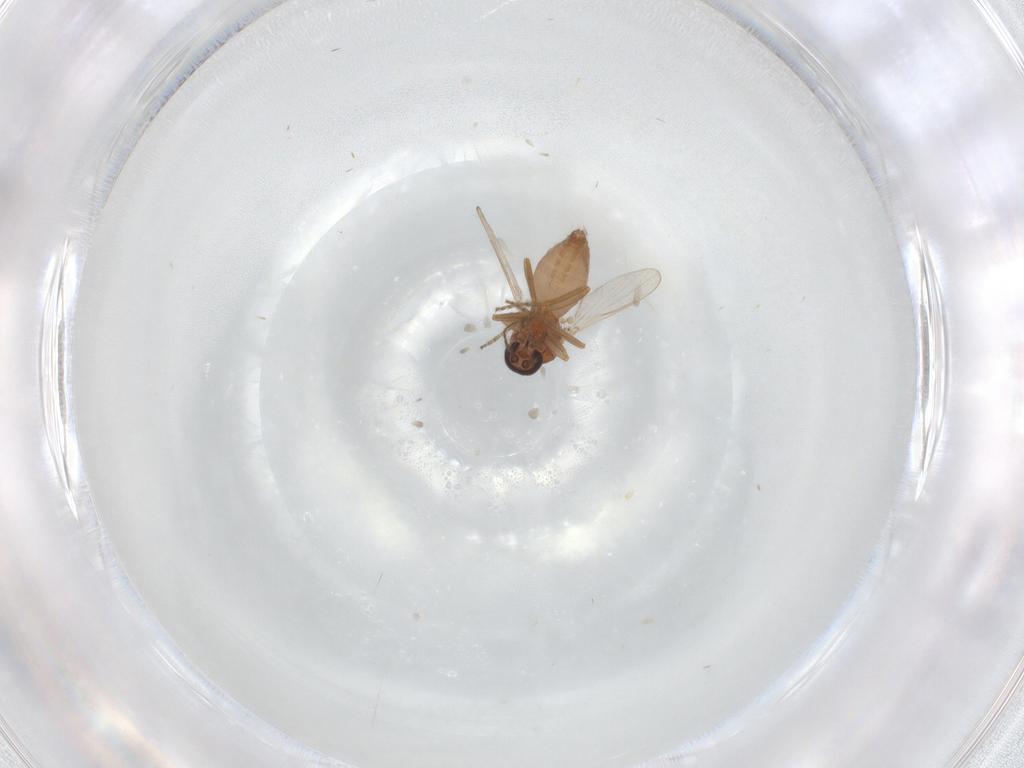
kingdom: Animalia
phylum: Arthropoda
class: Insecta
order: Diptera
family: Ceratopogonidae
